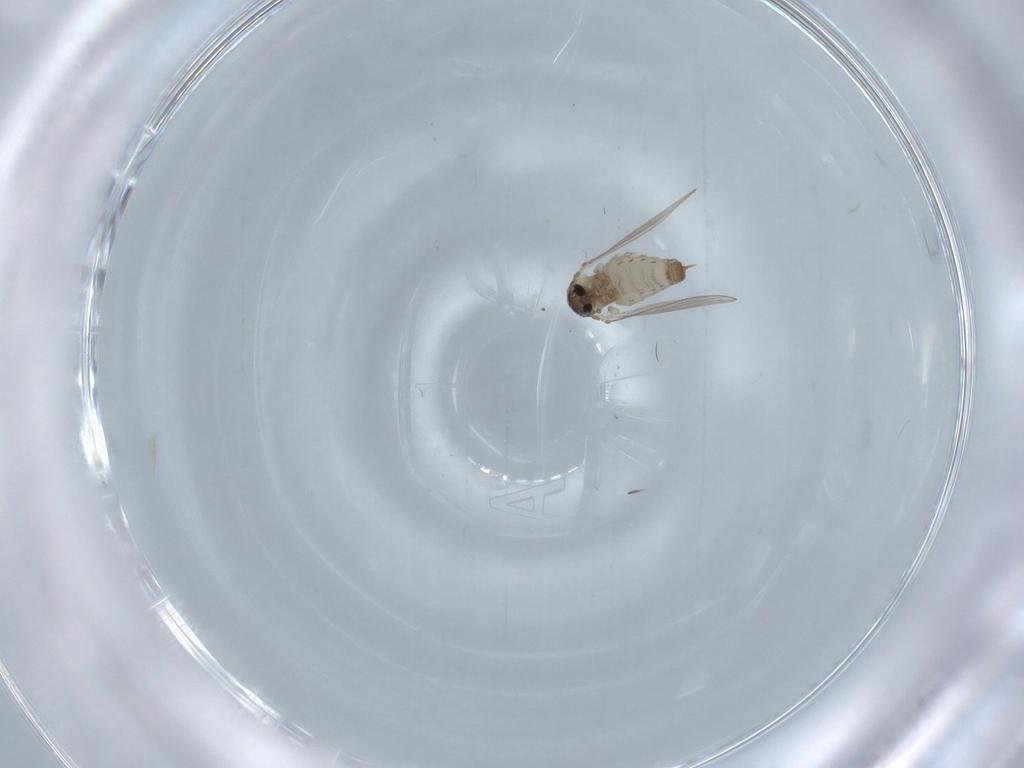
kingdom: Animalia
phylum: Arthropoda
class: Insecta
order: Diptera
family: Psychodidae
